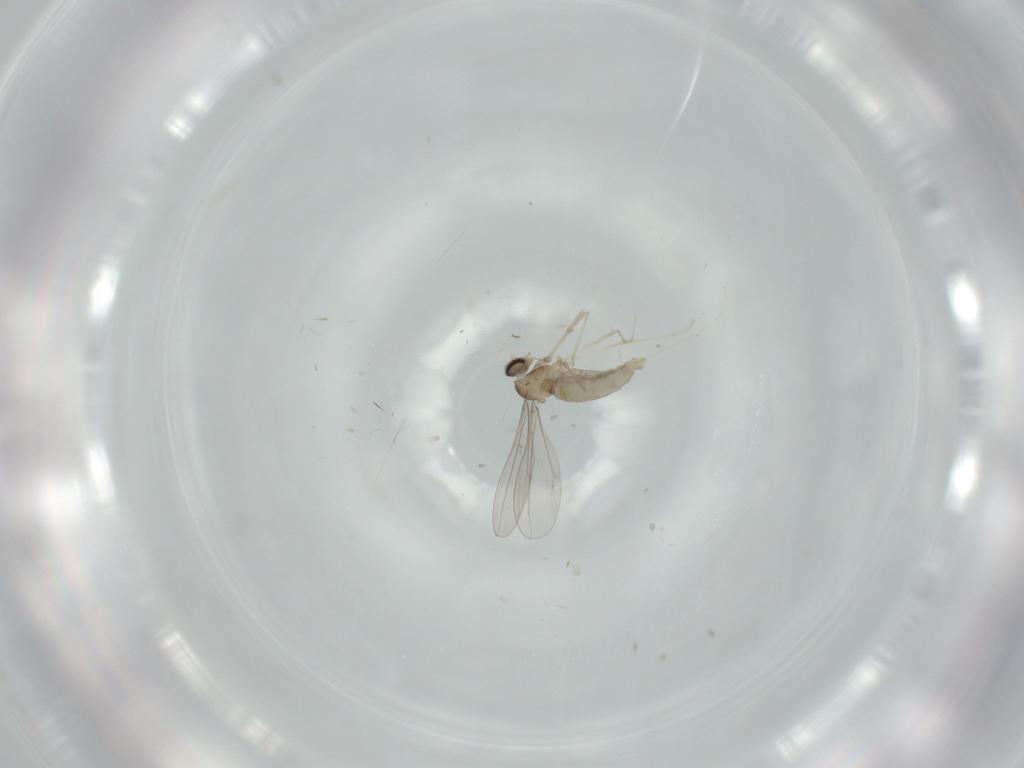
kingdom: Animalia
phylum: Arthropoda
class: Insecta
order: Diptera
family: Cecidomyiidae
